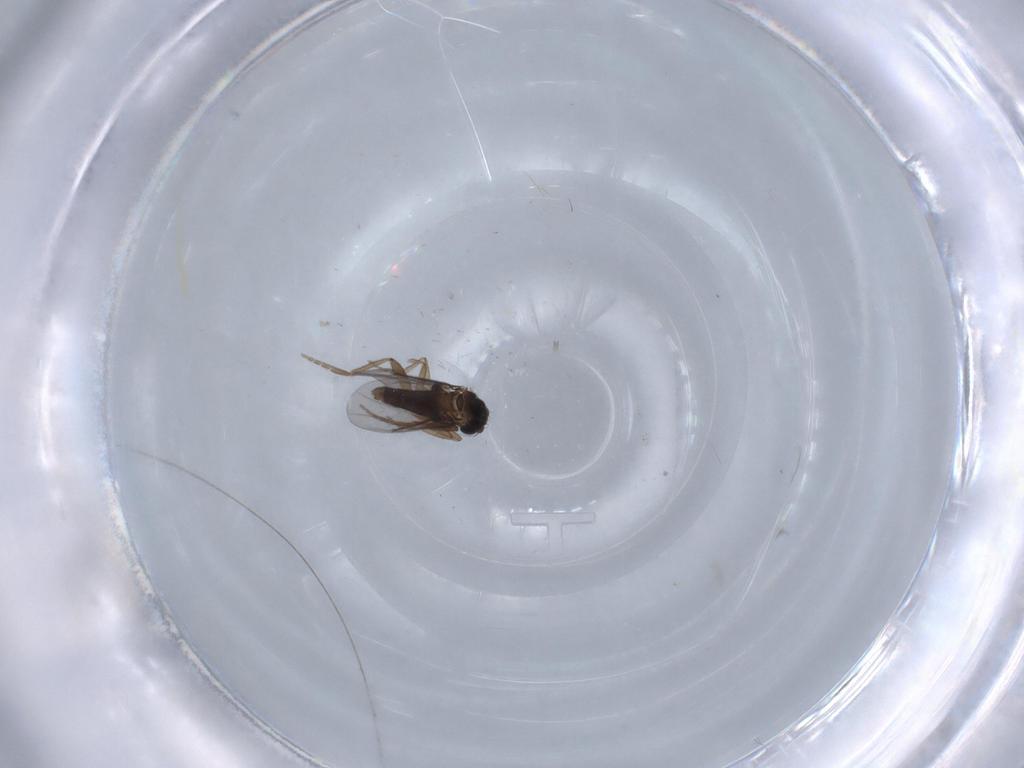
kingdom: Animalia
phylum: Arthropoda
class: Insecta
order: Diptera
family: Phoridae
